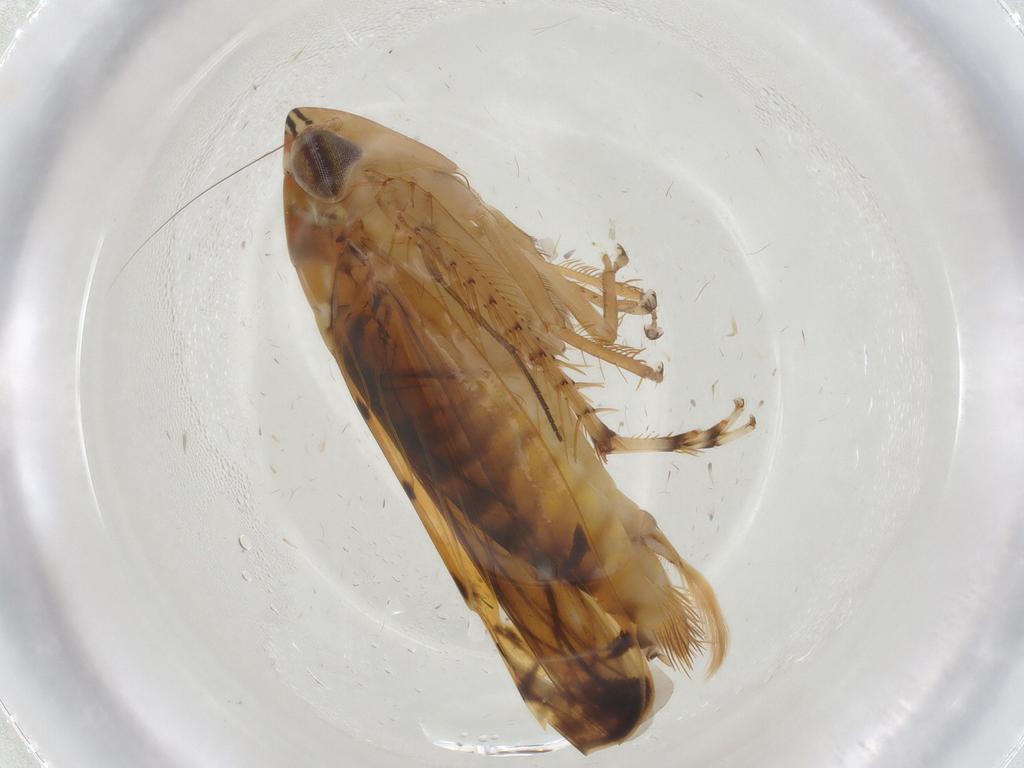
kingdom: Animalia
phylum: Arthropoda
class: Insecta
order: Hemiptera
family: Cercopidae
